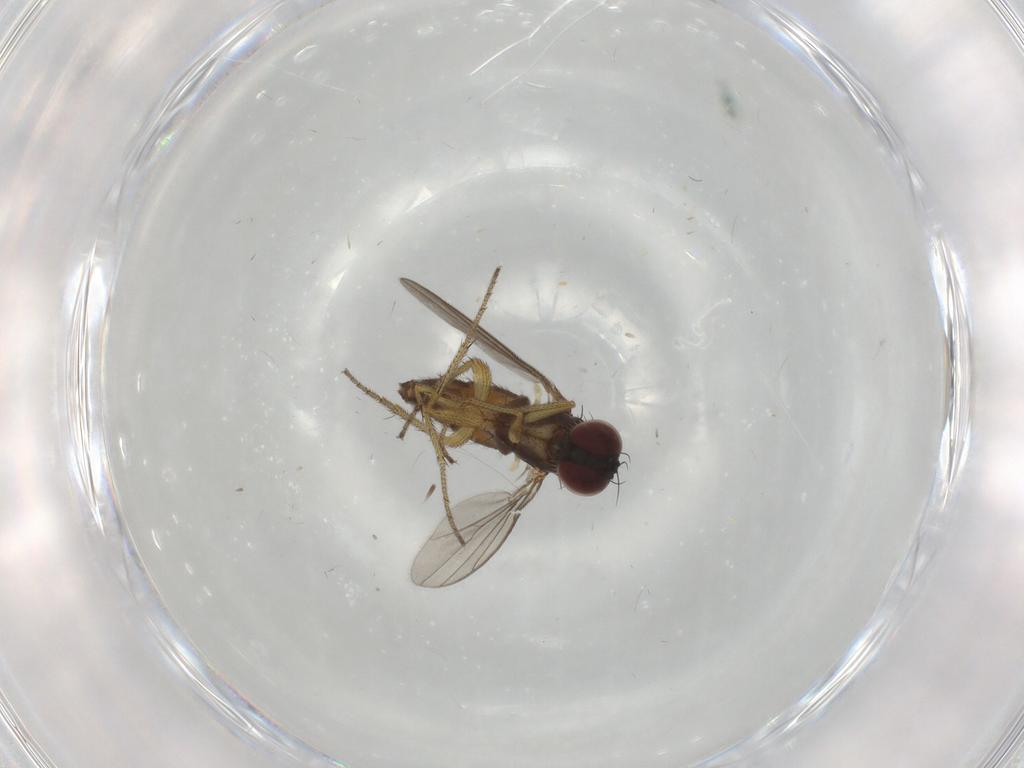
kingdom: Animalia
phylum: Arthropoda
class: Insecta
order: Diptera
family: Dolichopodidae
